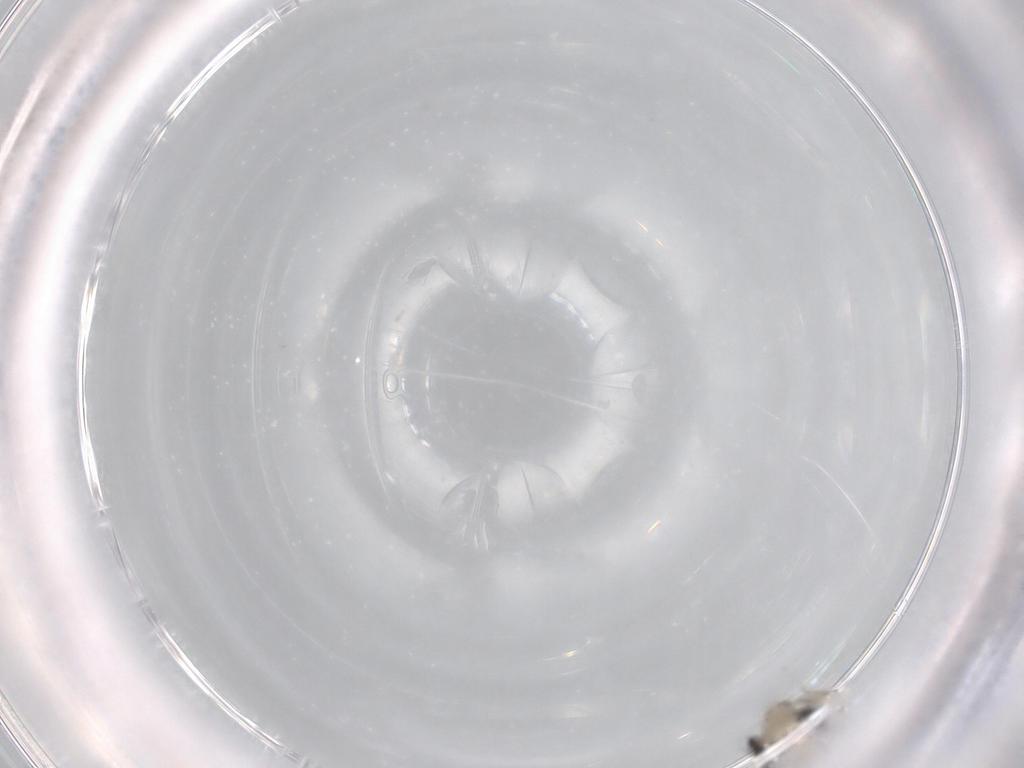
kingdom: Animalia
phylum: Arthropoda
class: Insecta
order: Diptera
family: Cecidomyiidae
